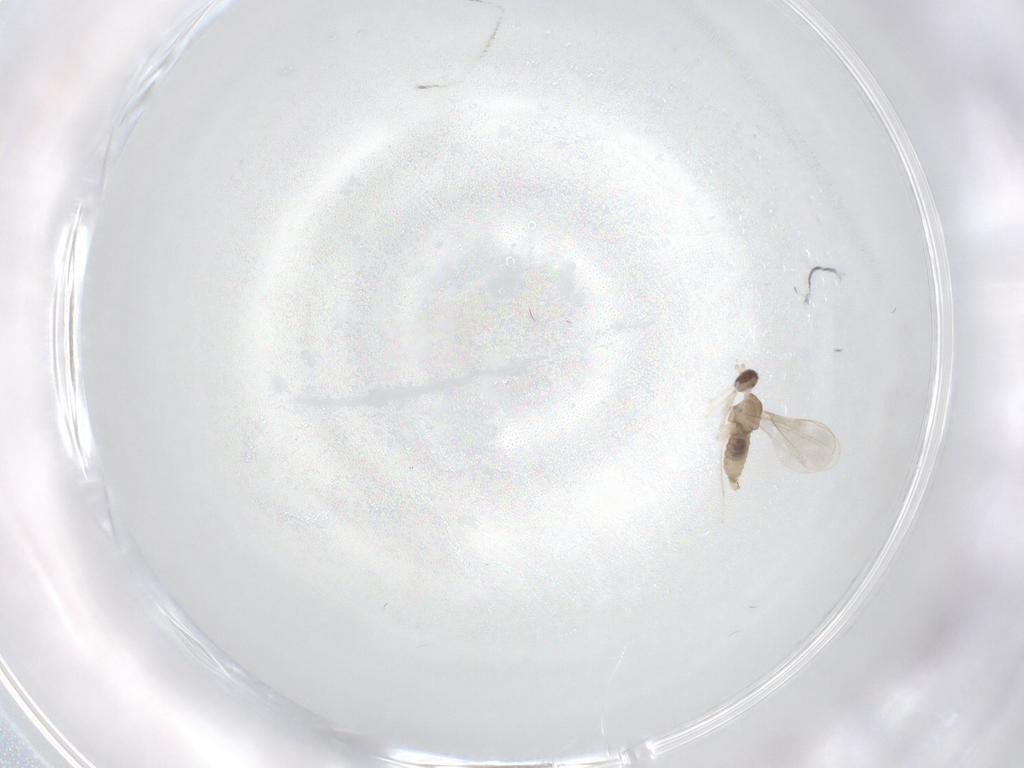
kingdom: Animalia
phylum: Arthropoda
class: Insecta
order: Diptera
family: Cecidomyiidae
